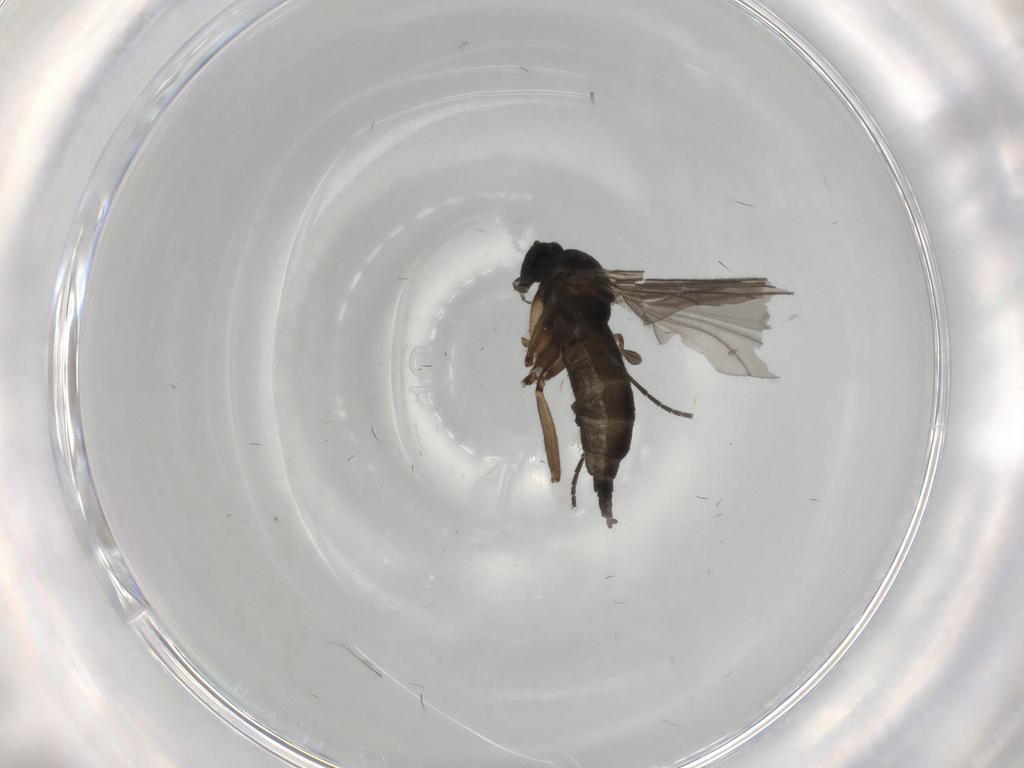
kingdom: Animalia
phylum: Arthropoda
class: Insecta
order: Diptera
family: Sciaridae
